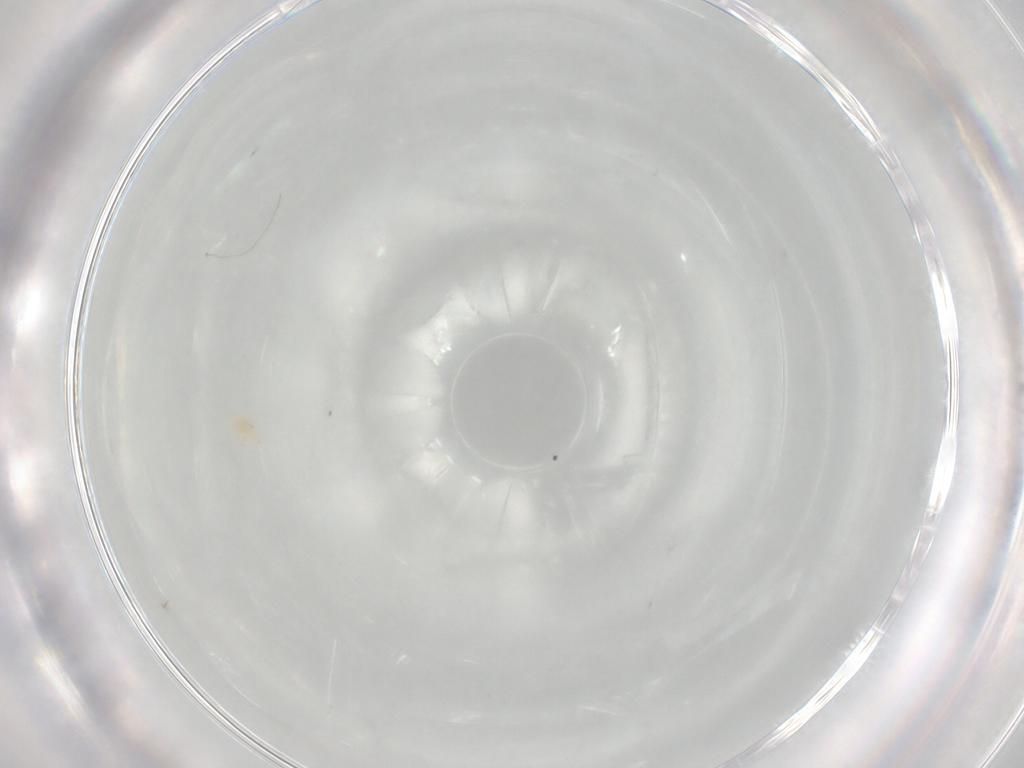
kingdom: Animalia
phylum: Arthropoda
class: Arachnida
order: Trombidiformes
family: Bdellidae
